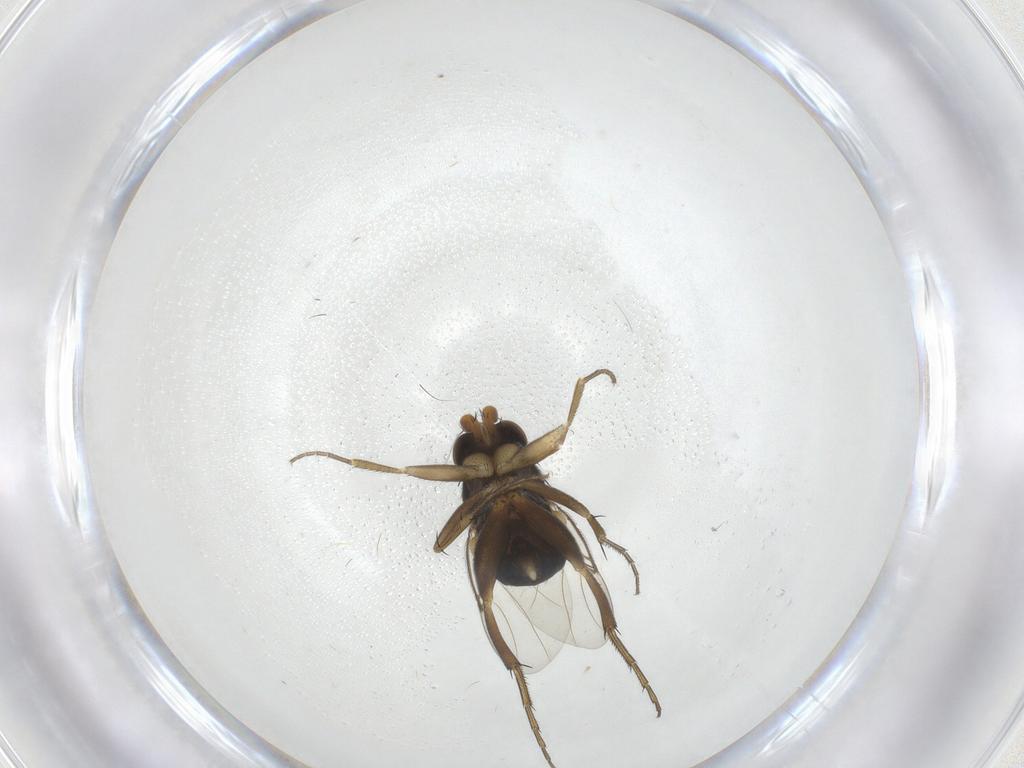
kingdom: Animalia
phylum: Arthropoda
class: Insecta
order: Diptera
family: Phoridae
